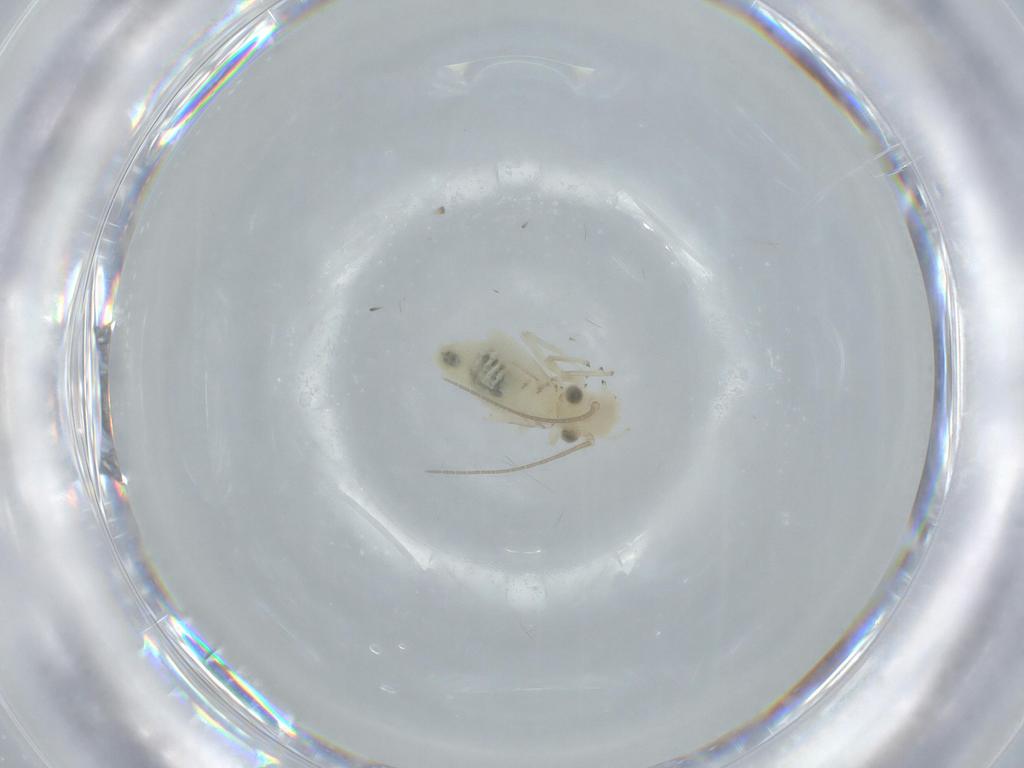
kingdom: Animalia
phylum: Arthropoda
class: Insecta
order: Psocodea
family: Caeciliusidae
